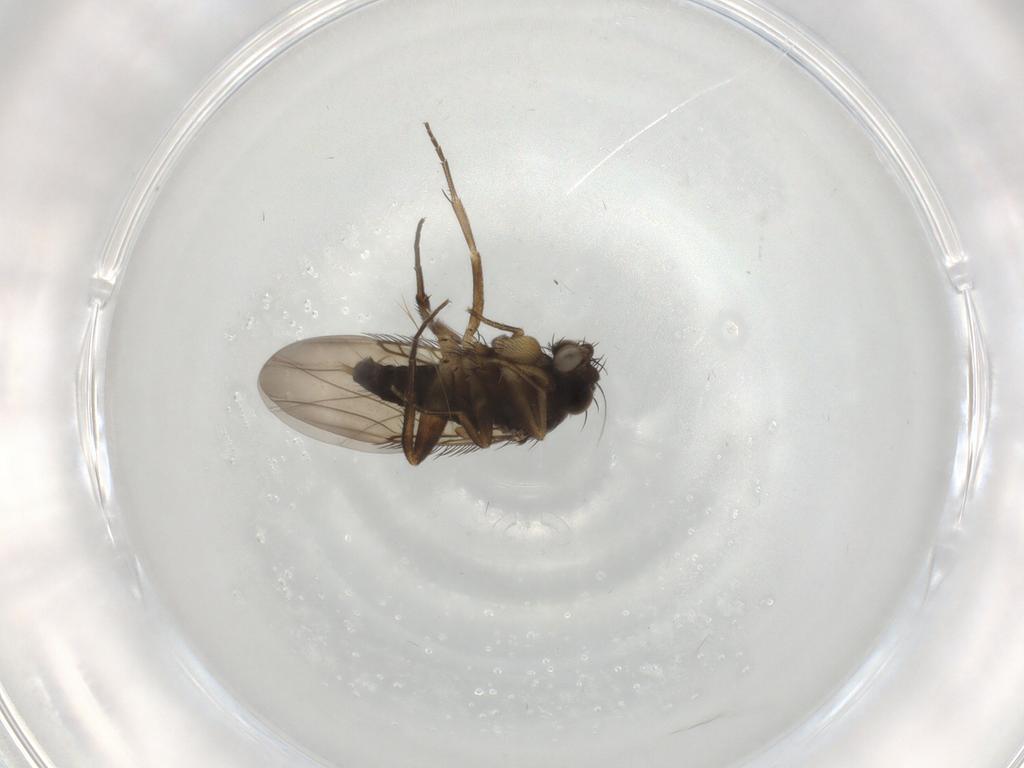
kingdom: Animalia
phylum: Arthropoda
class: Insecta
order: Diptera
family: Phoridae
